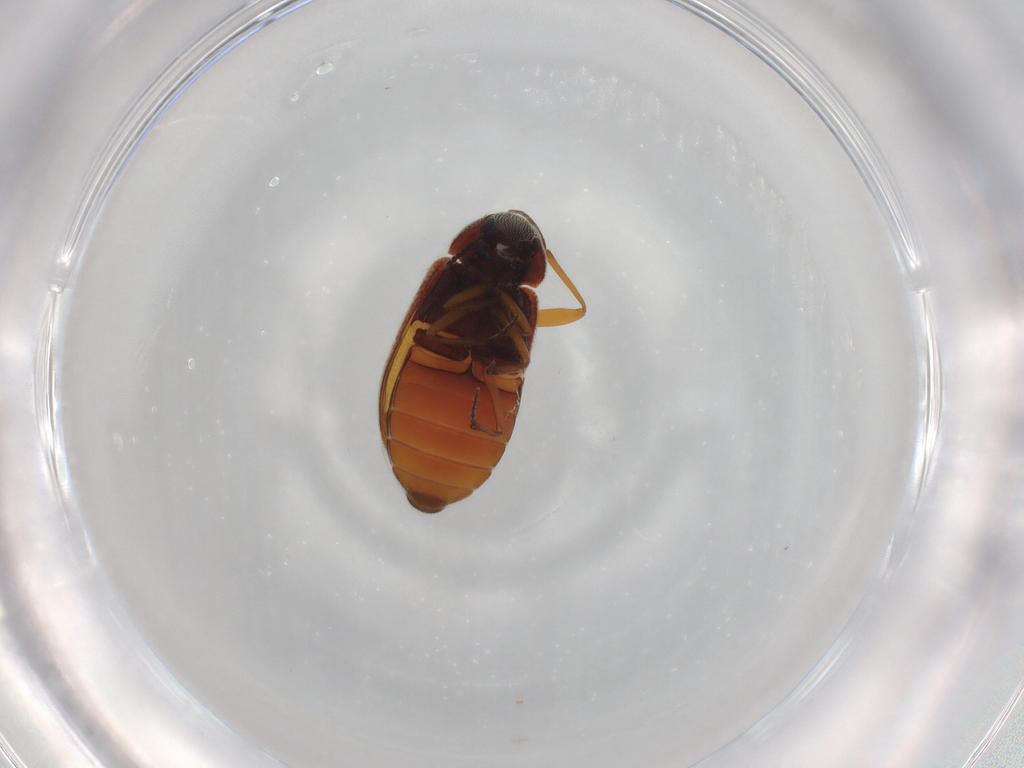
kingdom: Animalia
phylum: Arthropoda
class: Insecta
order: Coleoptera
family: Rhadalidae
